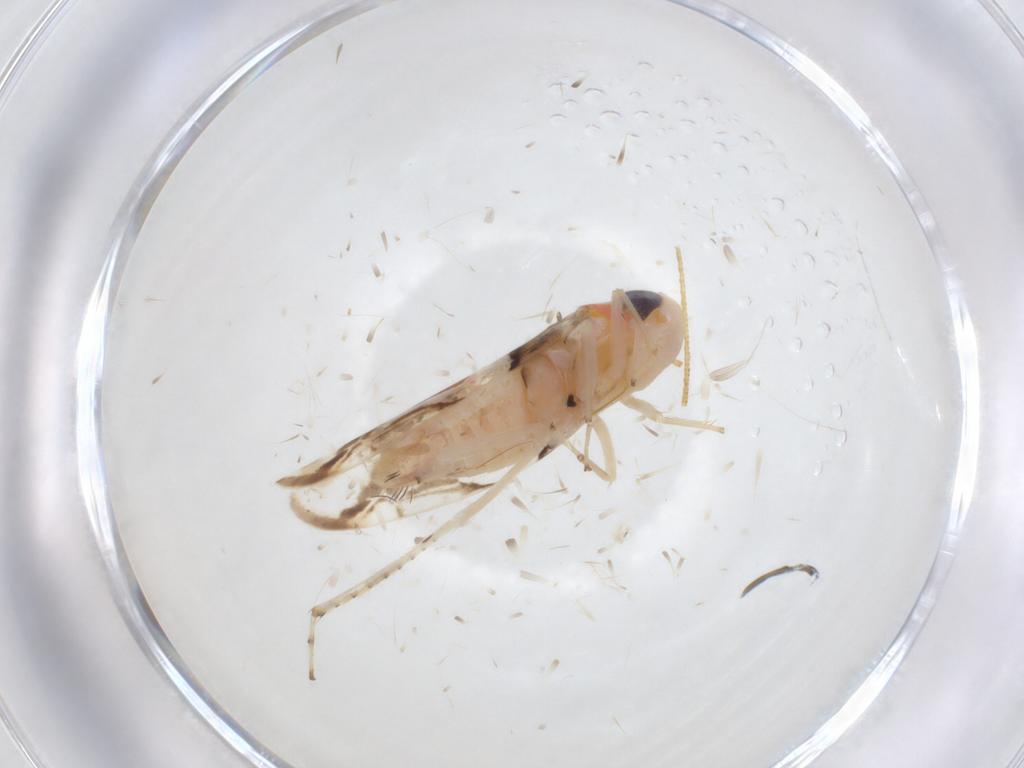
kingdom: Animalia
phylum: Arthropoda
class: Insecta
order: Hemiptera
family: Cicadellidae
